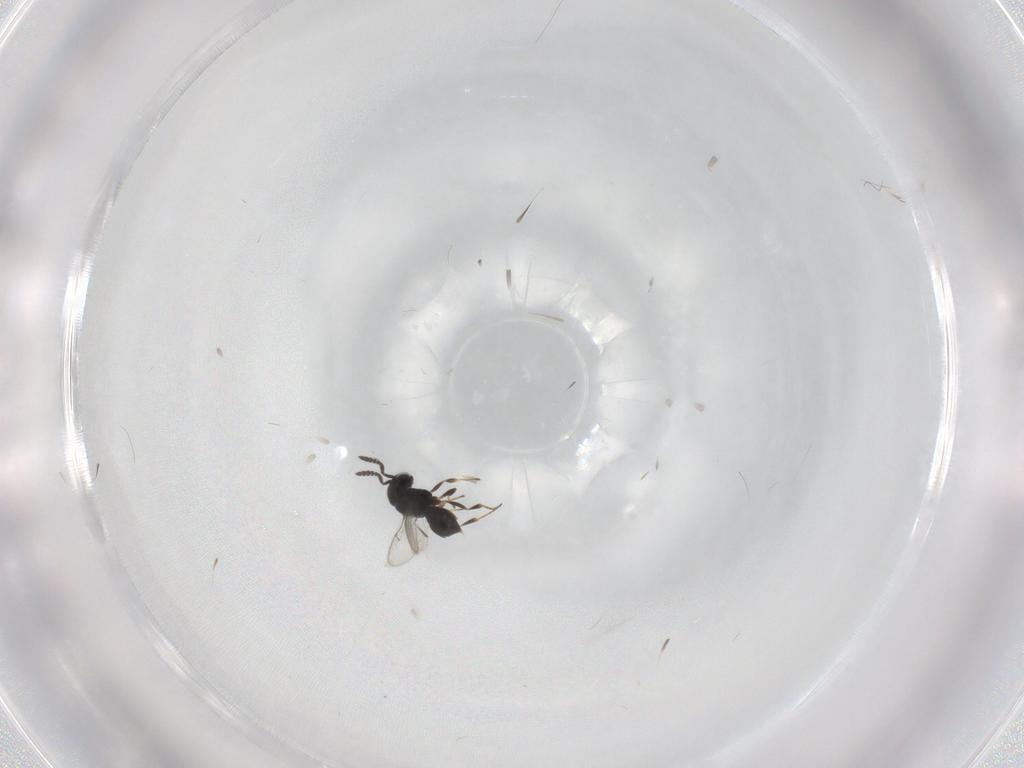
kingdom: Animalia
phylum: Arthropoda
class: Insecta
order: Hymenoptera
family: Scelionidae
